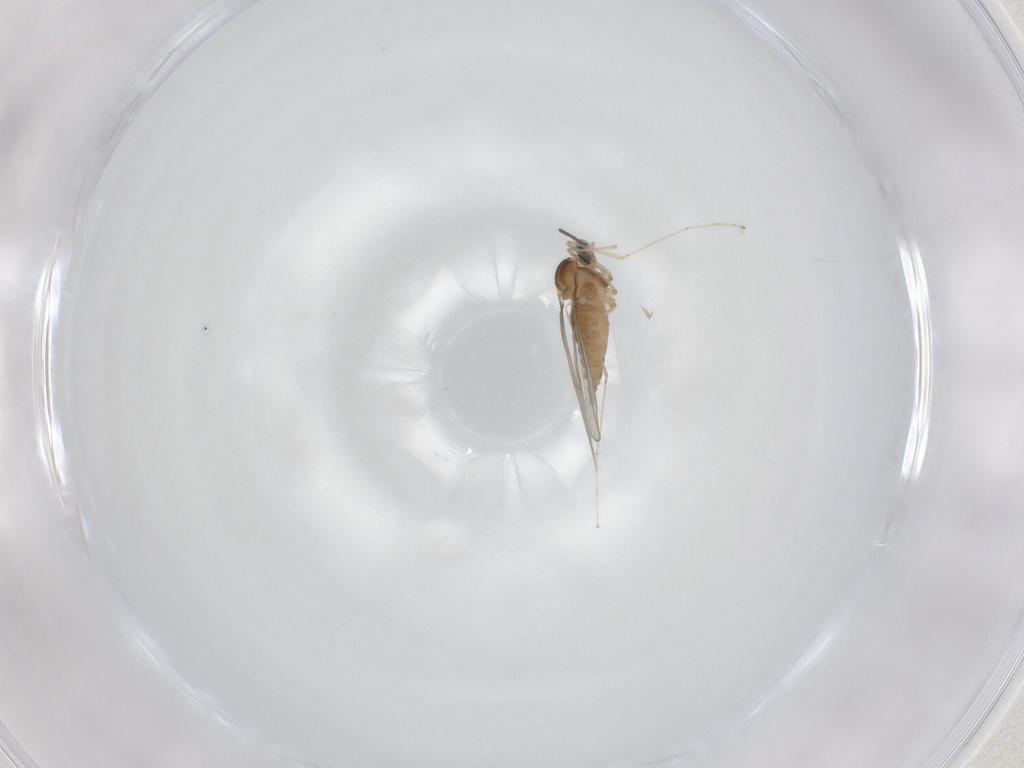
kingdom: Animalia
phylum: Arthropoda
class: Insecta
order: Diptera
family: Cecidomyiidae
